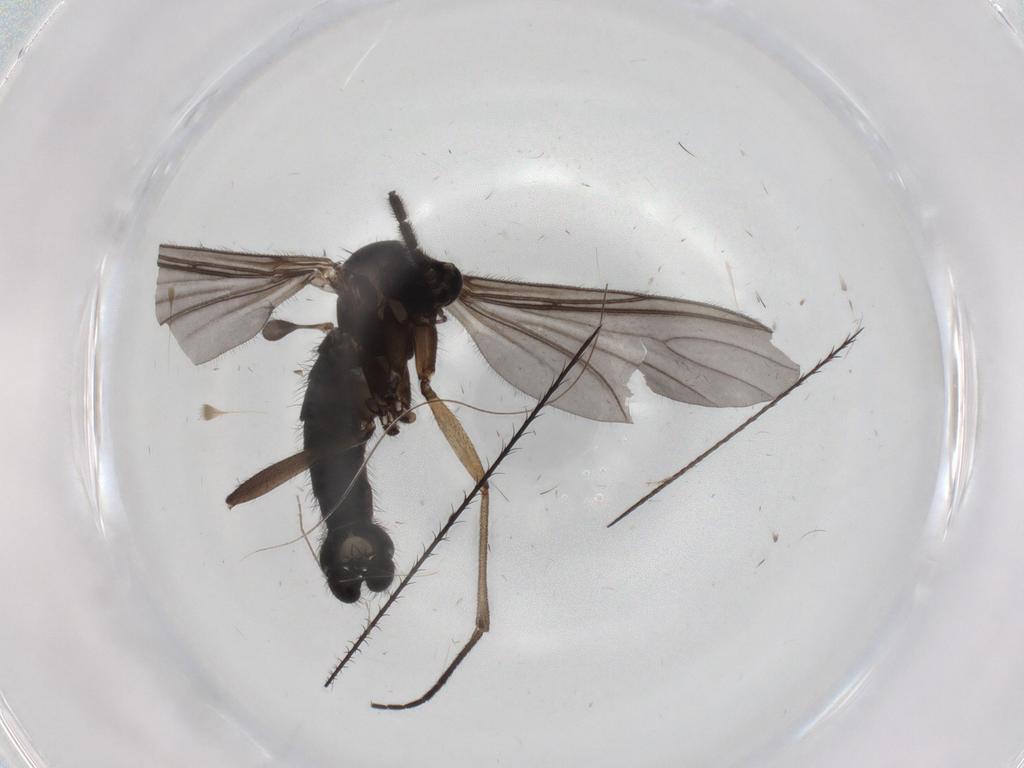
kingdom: Animalia
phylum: Arthropoda
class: Insecta
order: Diptera
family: Sciaridae
